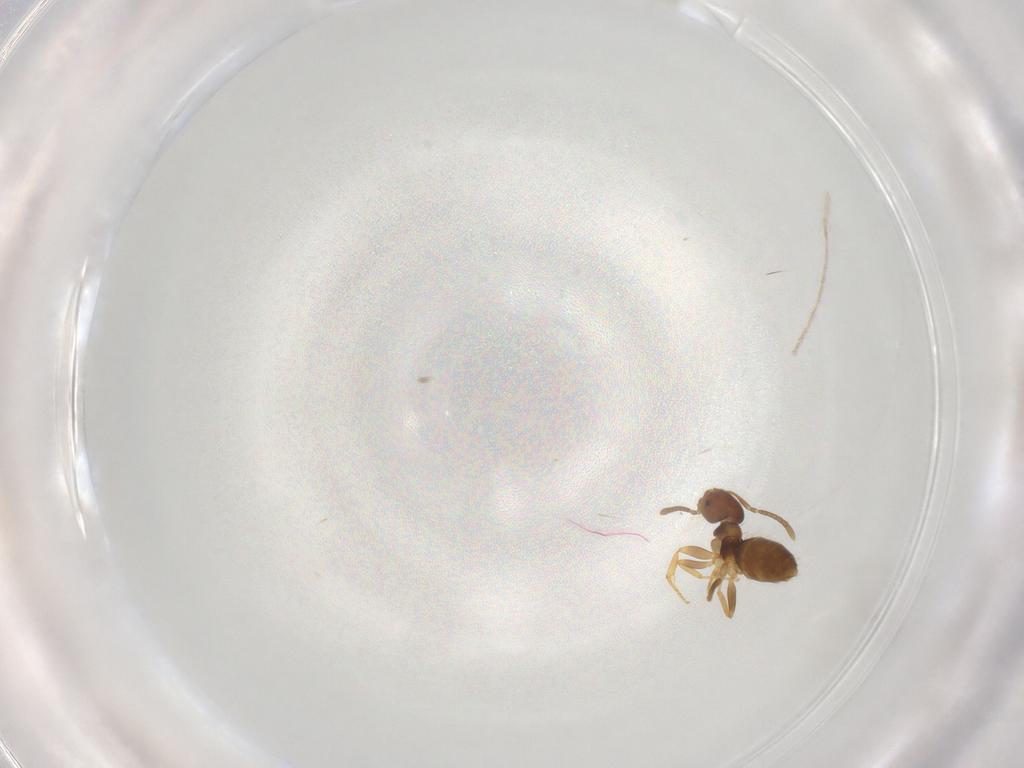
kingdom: Animalia
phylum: Arthropoda
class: Insecta
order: Hymenoptera
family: Formicidae
